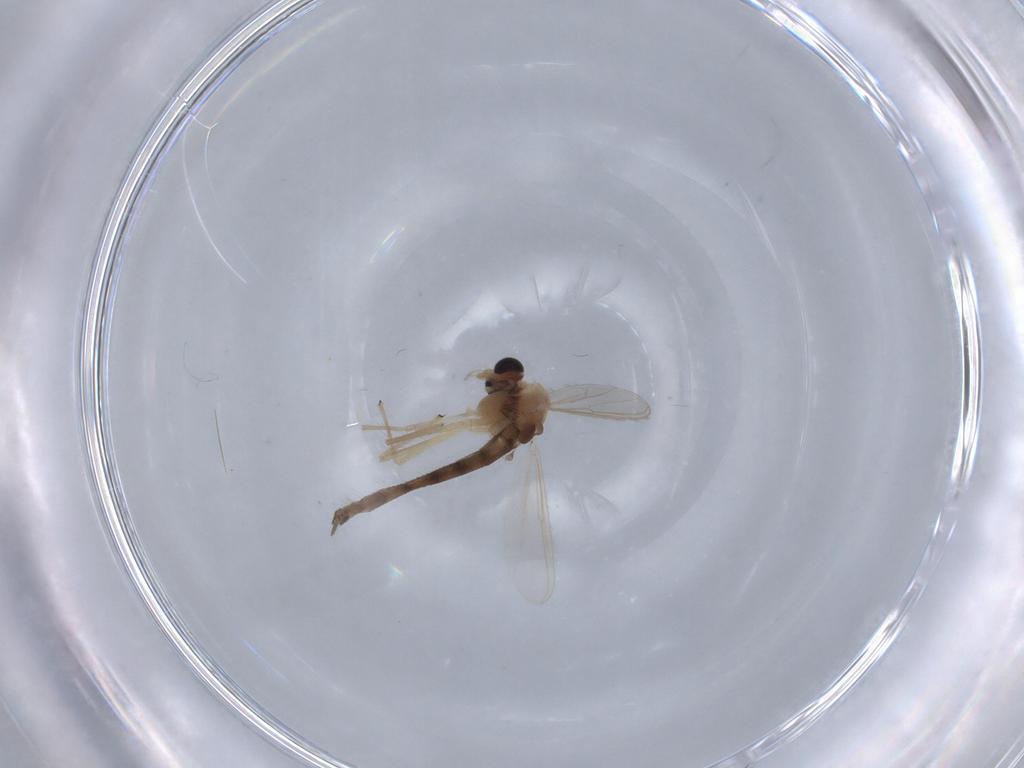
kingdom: Animalia
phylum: Arthropoda
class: Insecta
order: Diptera
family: Chironomidae
